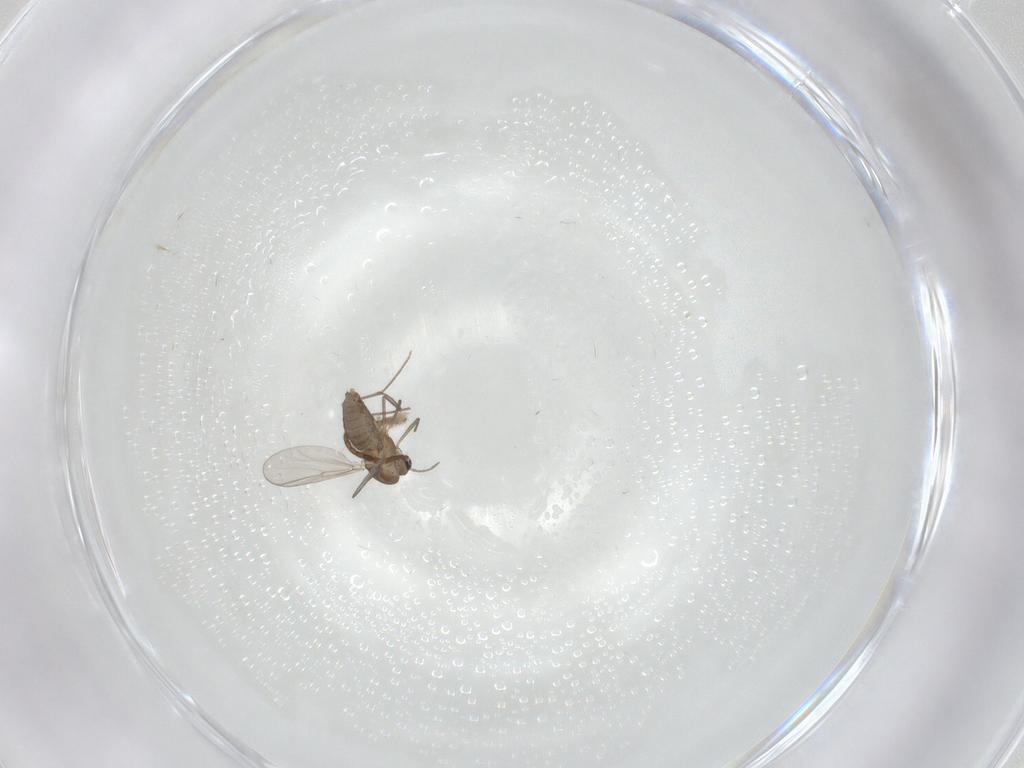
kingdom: Animalia
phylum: Arthropoda
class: Insecta
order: Diptera
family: Chironomidae
